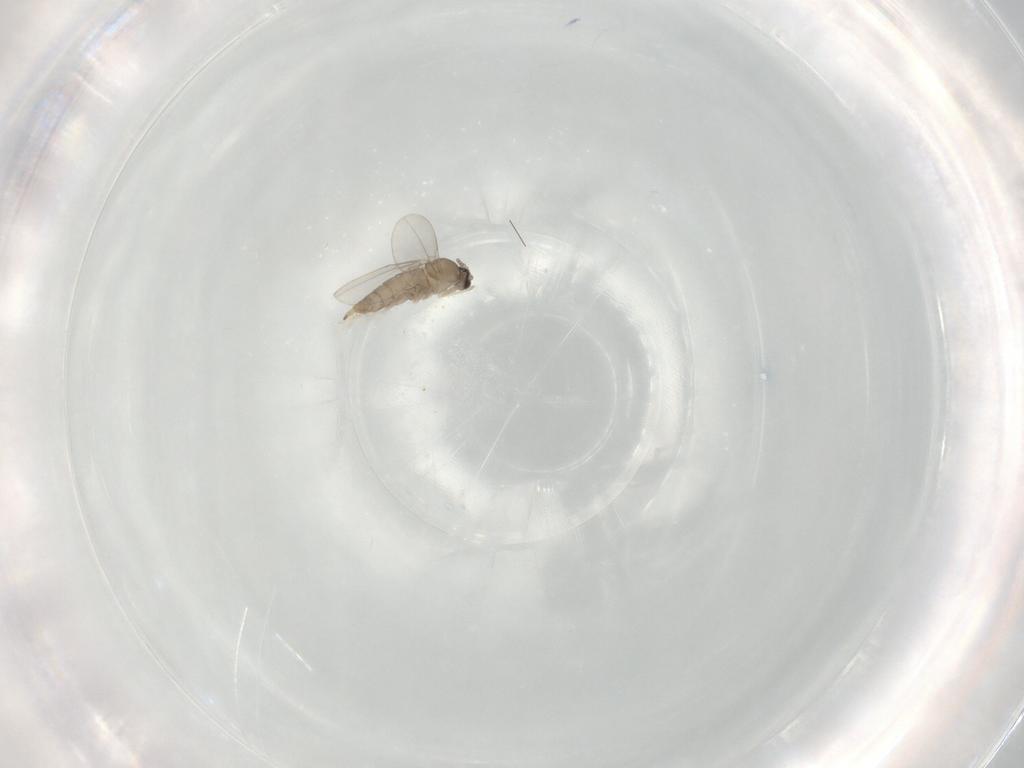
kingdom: Animalia
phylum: Arthropoda
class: Insecta
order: Diptera
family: Cecidomyiidae
